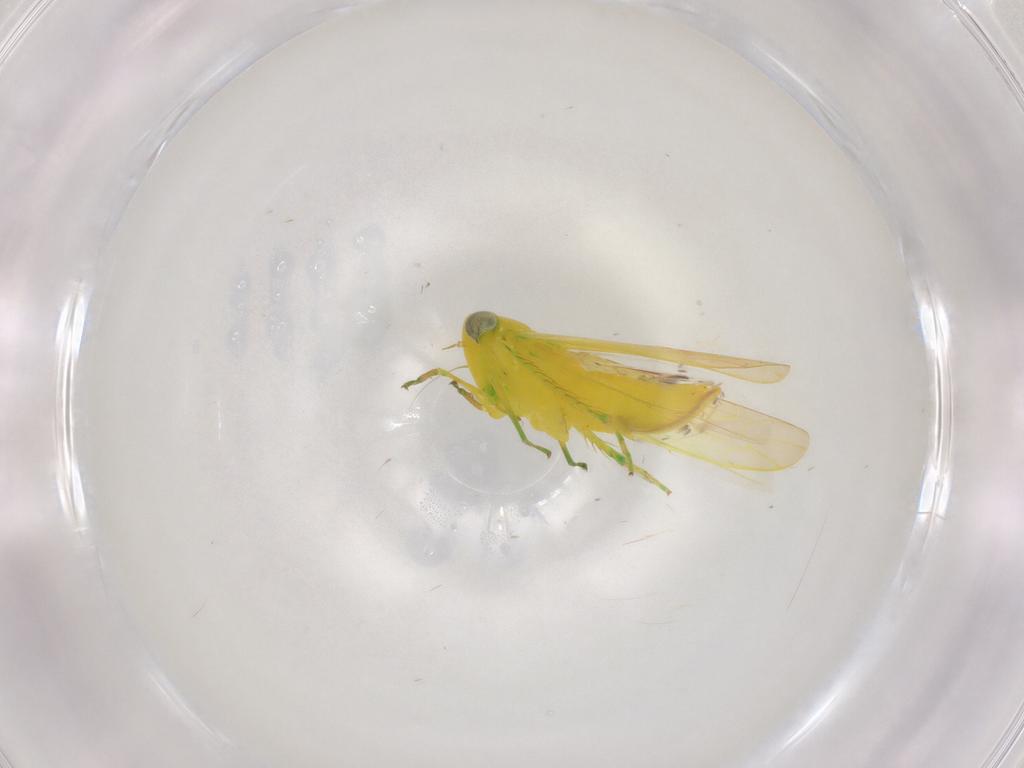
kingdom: Animalia
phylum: Arthropoda
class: Insecta
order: Hemiptera
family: Cicadellidae
